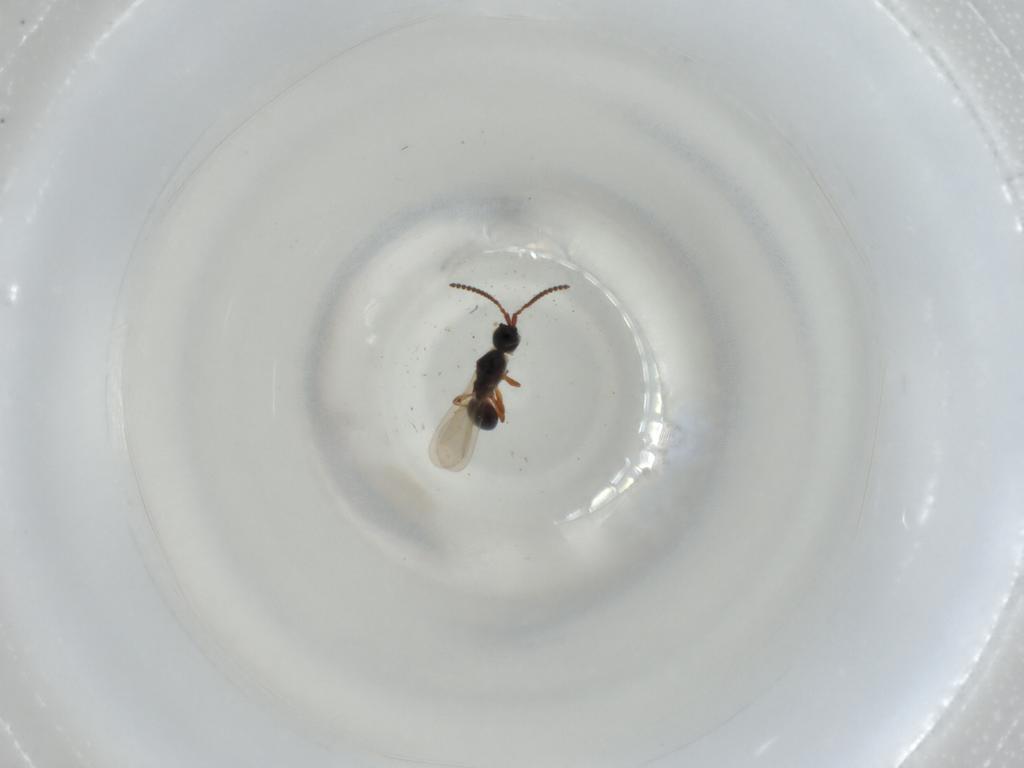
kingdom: Animalia
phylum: Arthropoda
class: Insecta
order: Hymenoptera
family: Diapriidae
